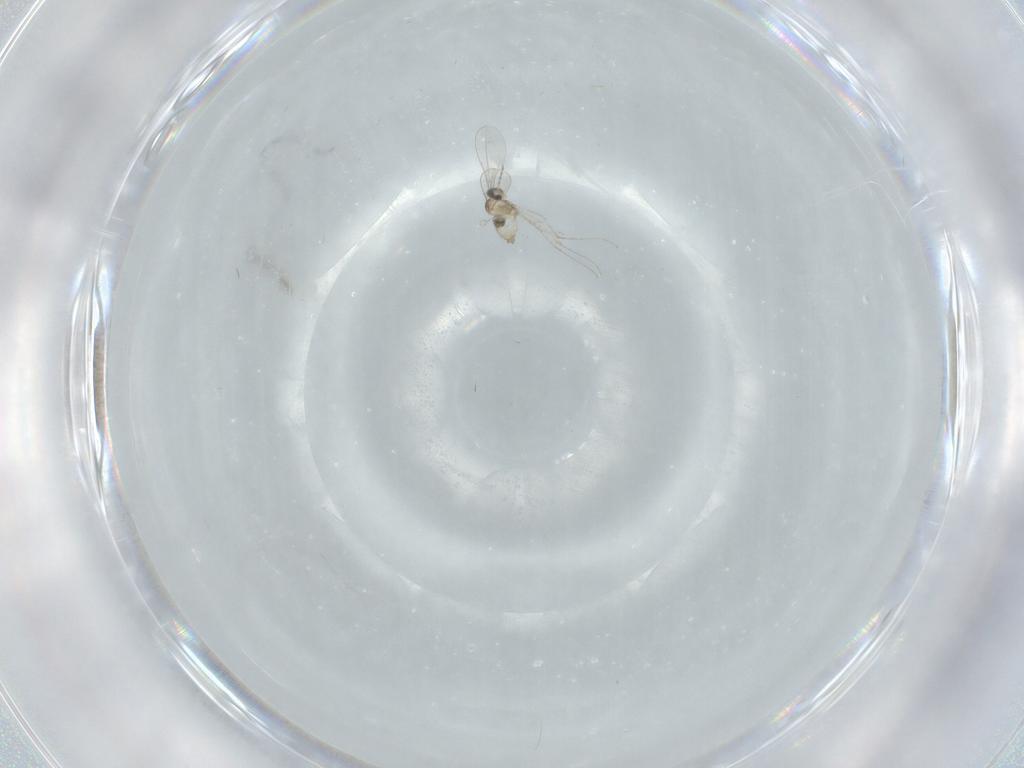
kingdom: Animalia
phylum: Arthropoda
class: Insecta
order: Diptera
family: Cecidomyiidae
